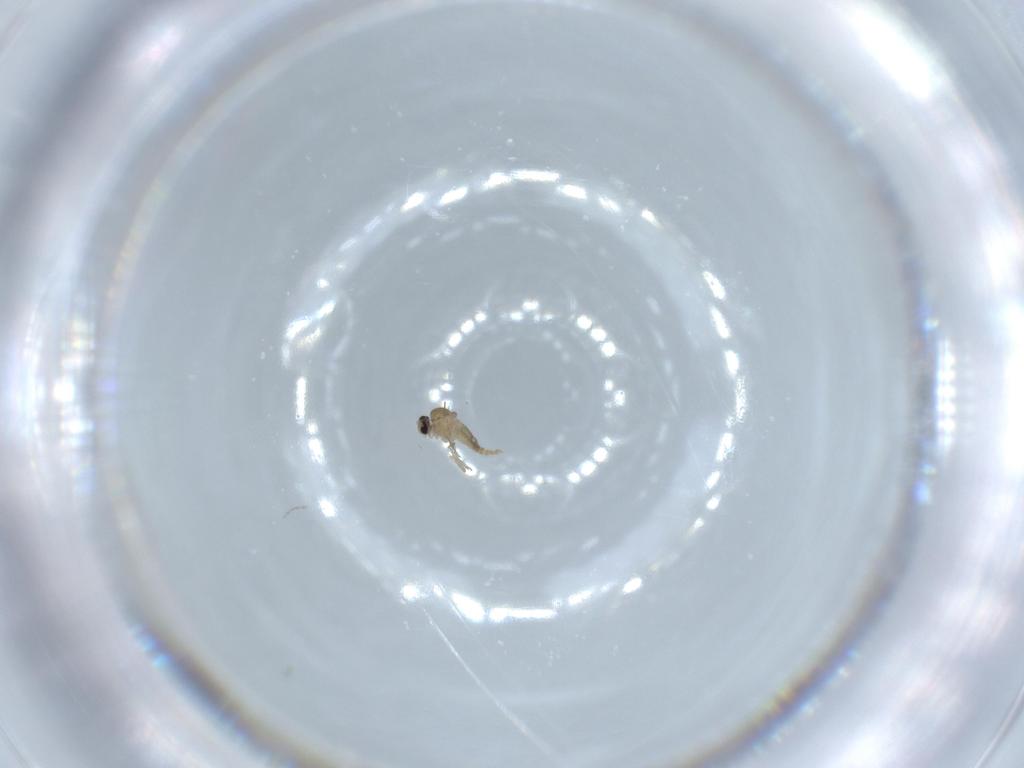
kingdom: Animalia
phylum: Arthropoda
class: Insecta
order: Diptera
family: Cecidomyiidae
